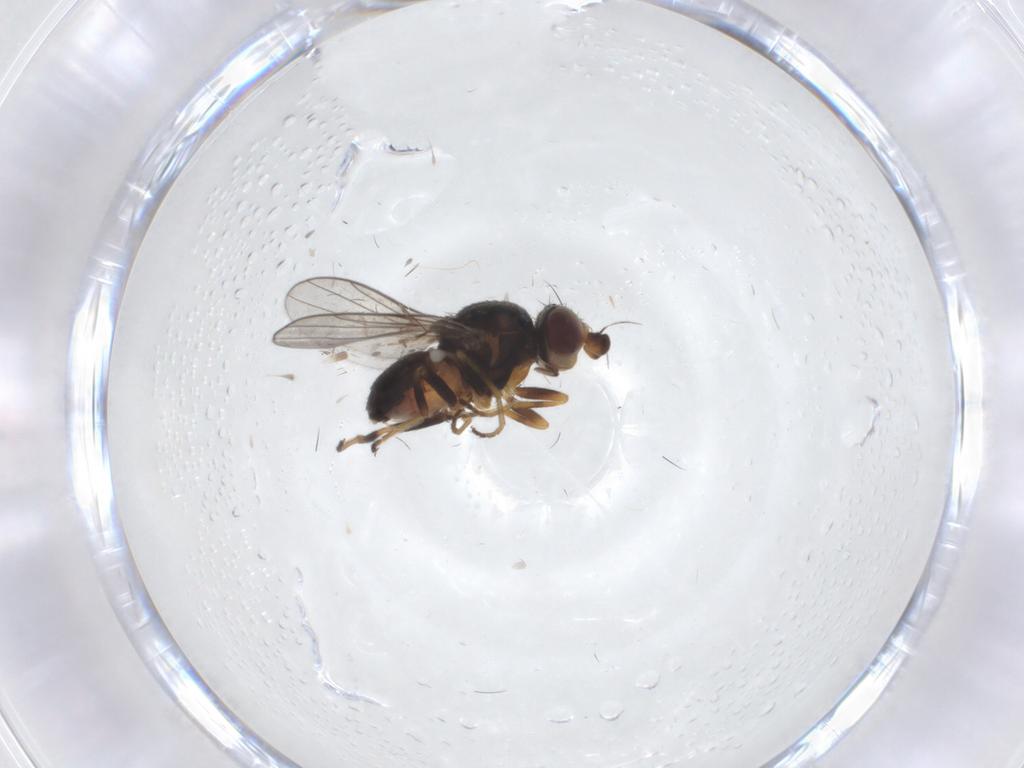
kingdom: Animalia
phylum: Arthropoda
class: Insecta
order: Diptera
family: Chloropidae
